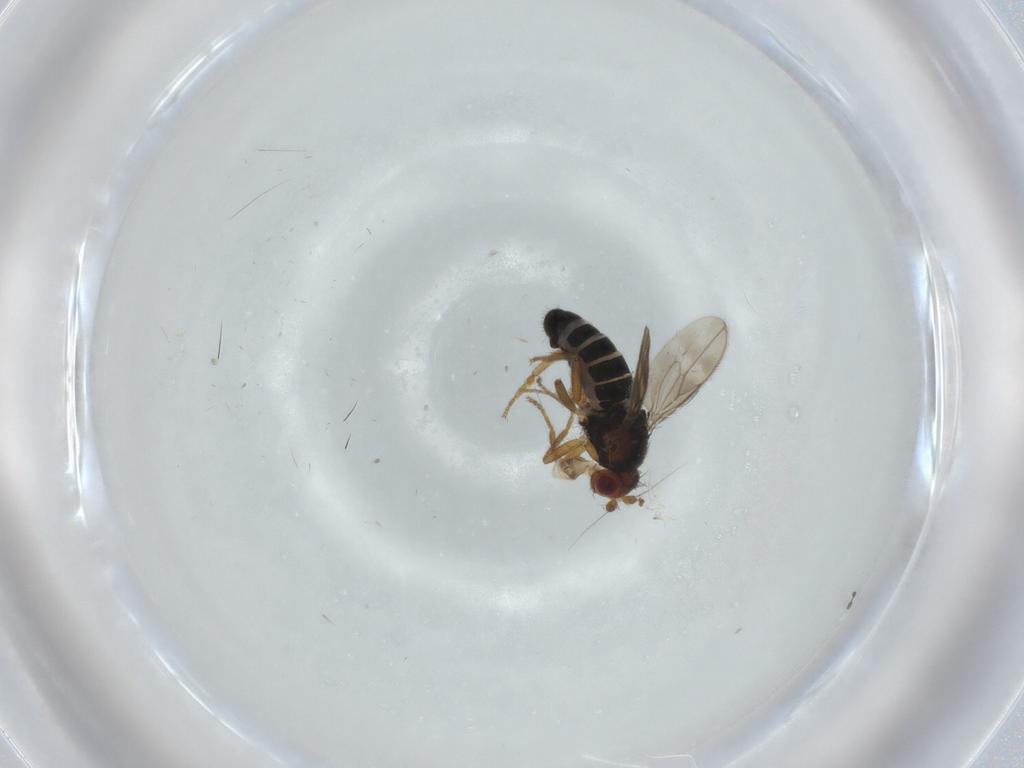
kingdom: Animalia
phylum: Arthropoda
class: Insecta
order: Diptera
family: Sphaeroceridae
